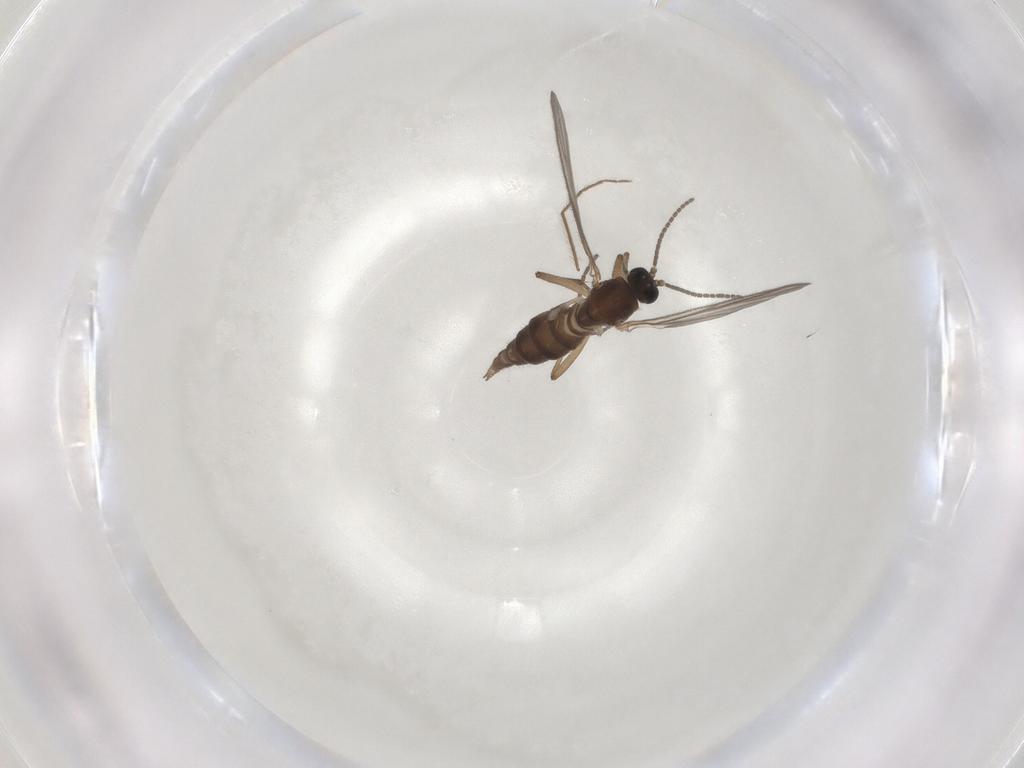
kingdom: Animalia
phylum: Arthropoda
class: Insecta
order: Diptera
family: Sciaridae
